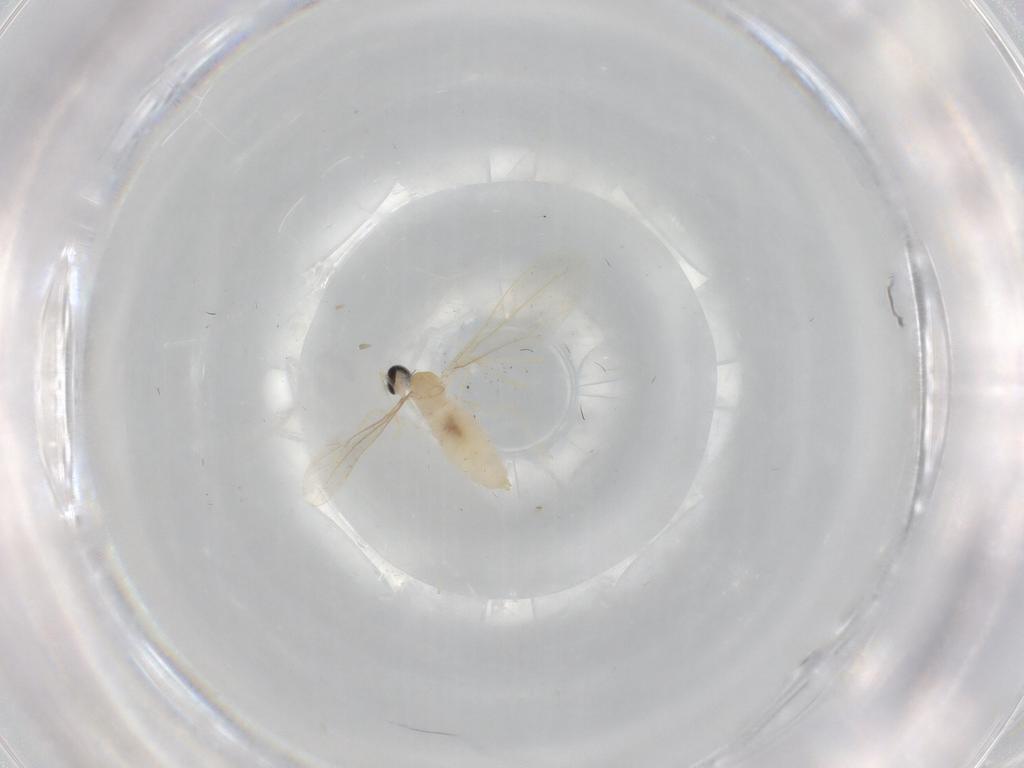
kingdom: Animalia
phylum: Arthropoda
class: Insecta
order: Diptera
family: Cecidomyiidae
